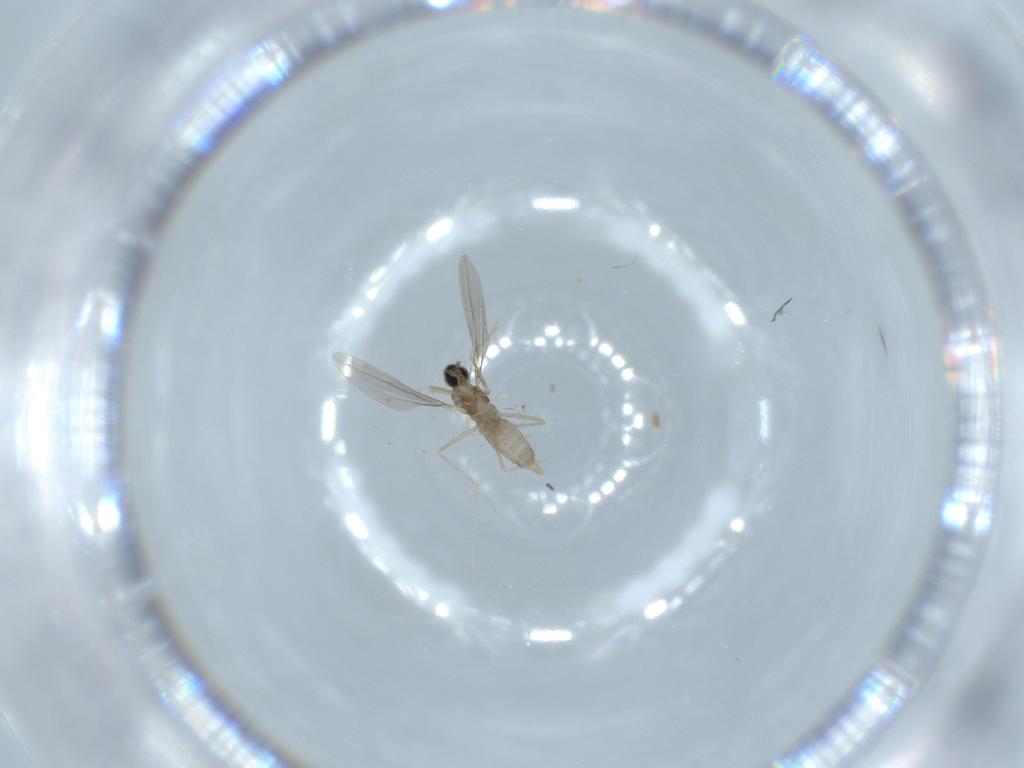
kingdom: Animalia
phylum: Arthropoda
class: Insecta
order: Diptera
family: Cecidomyiidae
